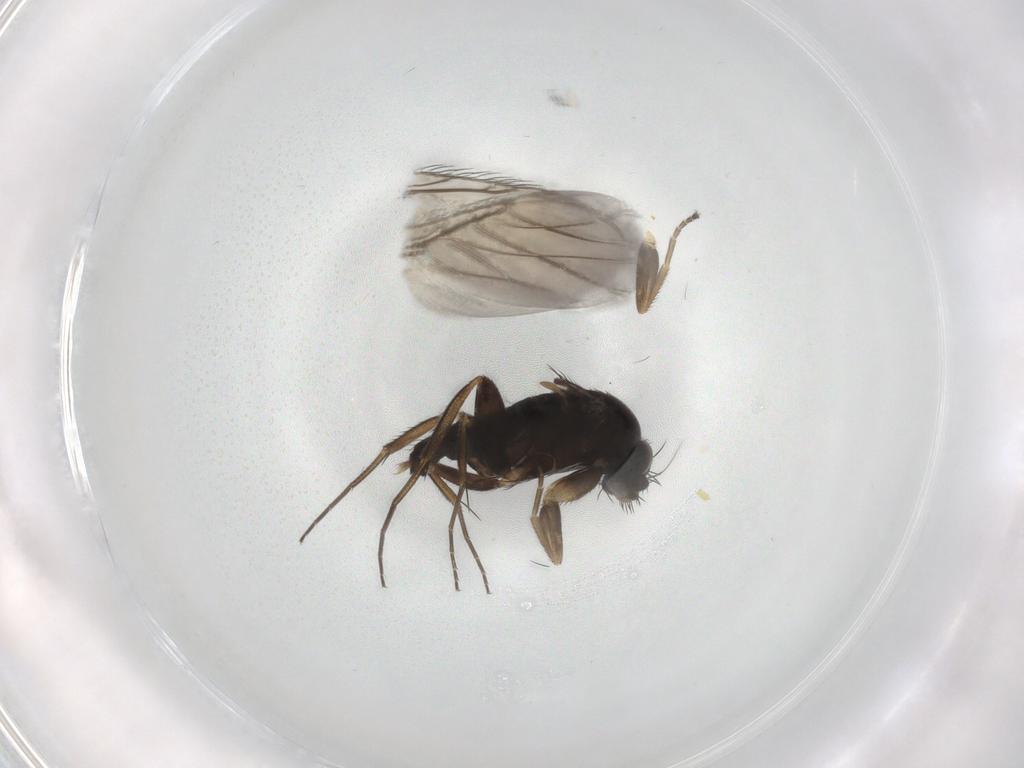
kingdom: Animalia
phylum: Arthropoda
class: Insecta
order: Diptera
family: Phoridae
